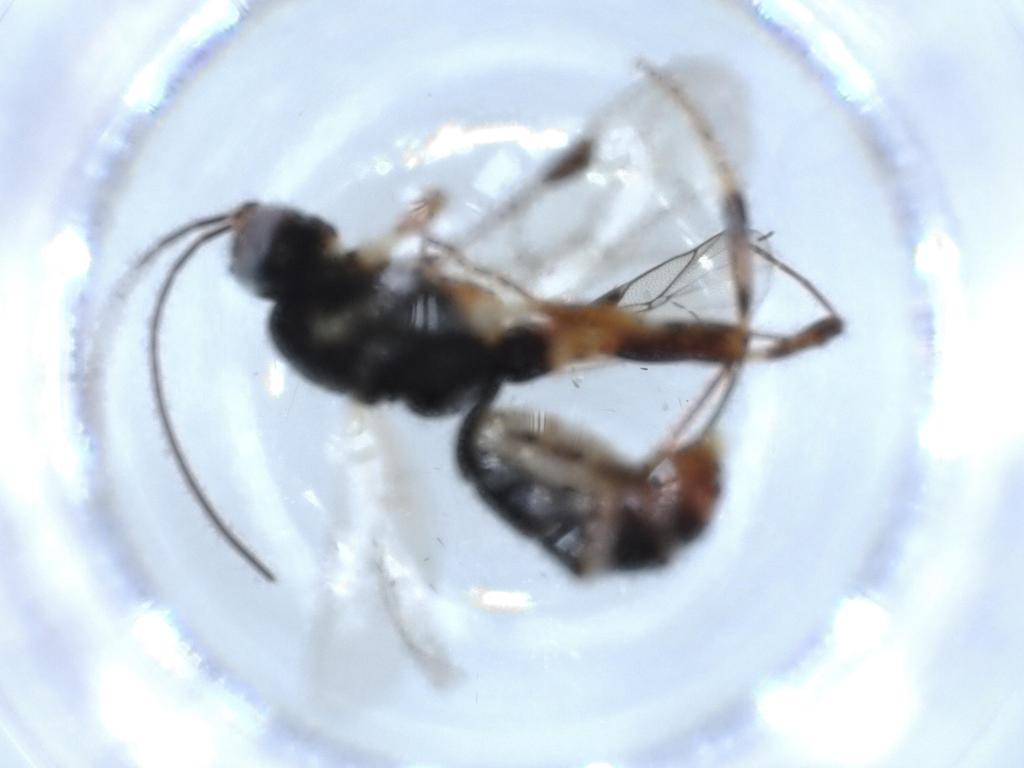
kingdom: Animalia
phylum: Arthropoda
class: Insecta
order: Hymenoptera
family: Ichneumonidae
